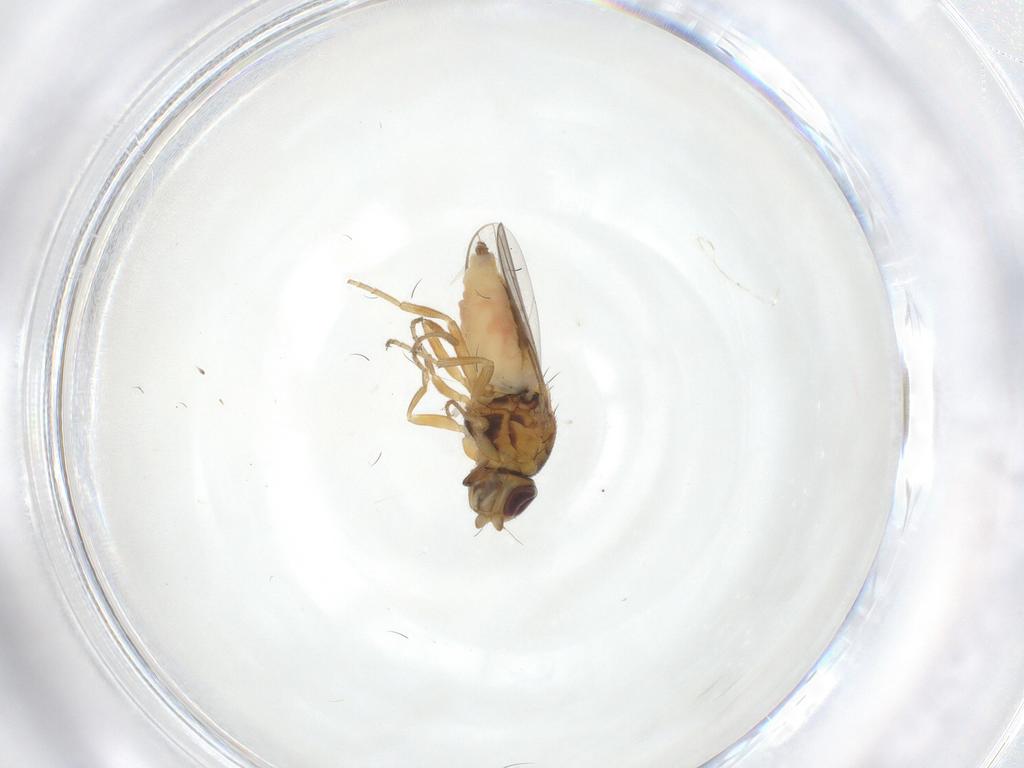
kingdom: Animalia
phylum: Arthropoda
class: Insecta
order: Diptera
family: Chloropidae
